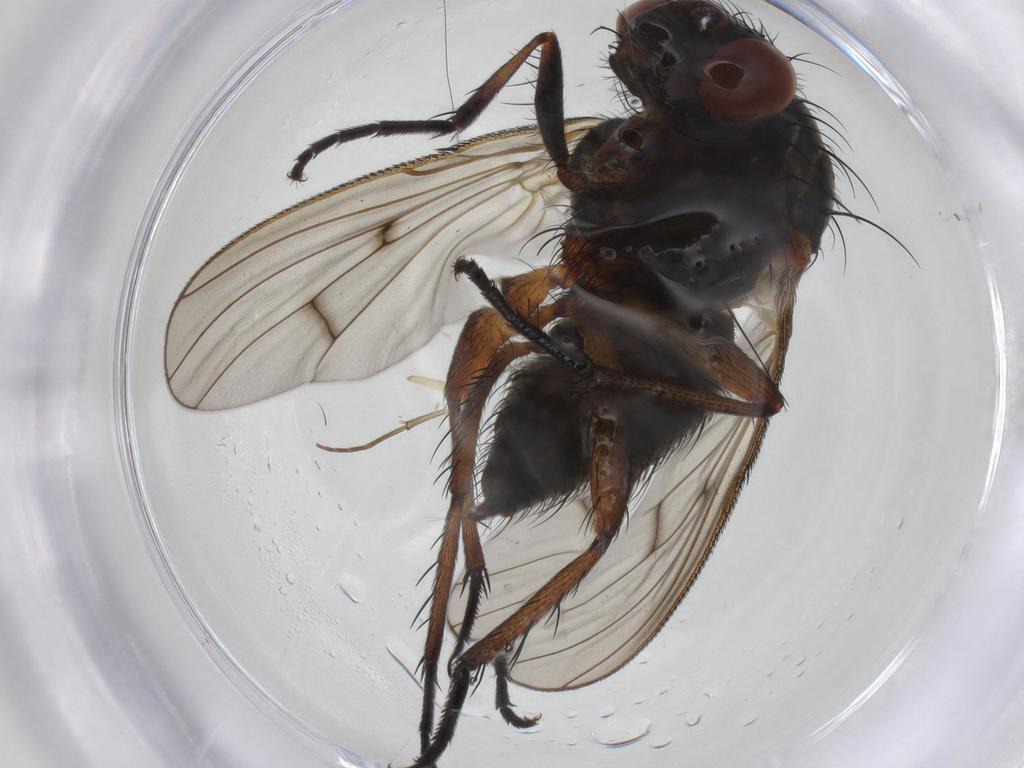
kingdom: Animalia
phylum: Arthropoda
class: Insecta
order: Diptera
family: Anthomyiidae
